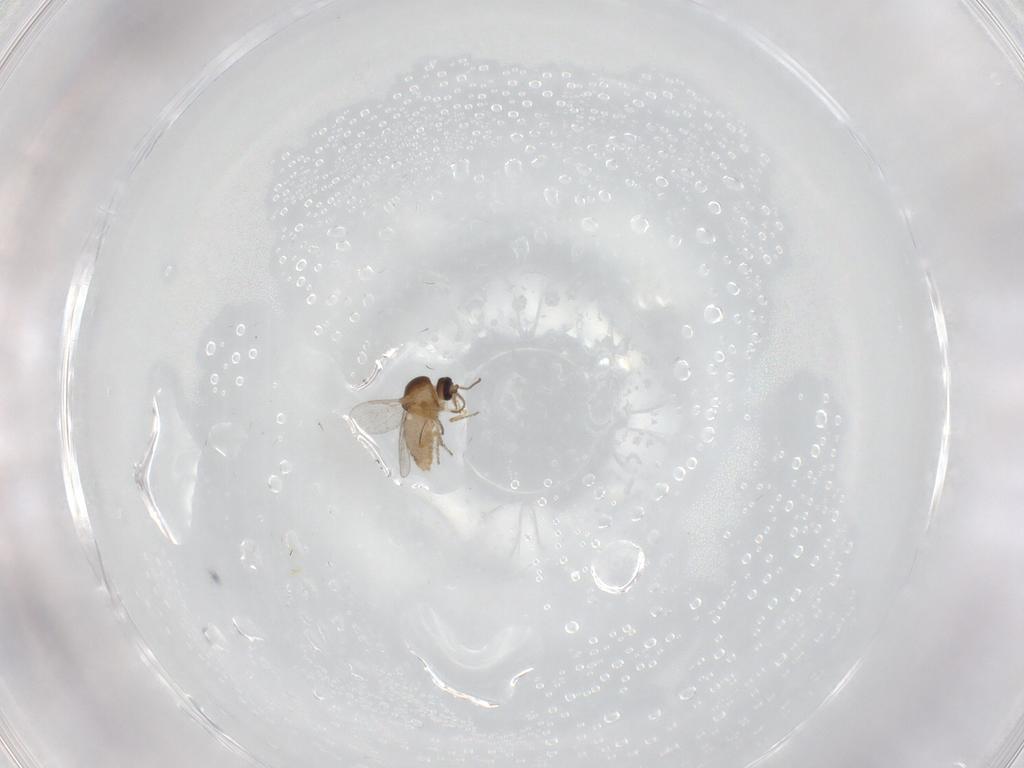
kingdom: Animalia
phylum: Arthropoda
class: Insecta
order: Diptera
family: Ceratopogonidae
